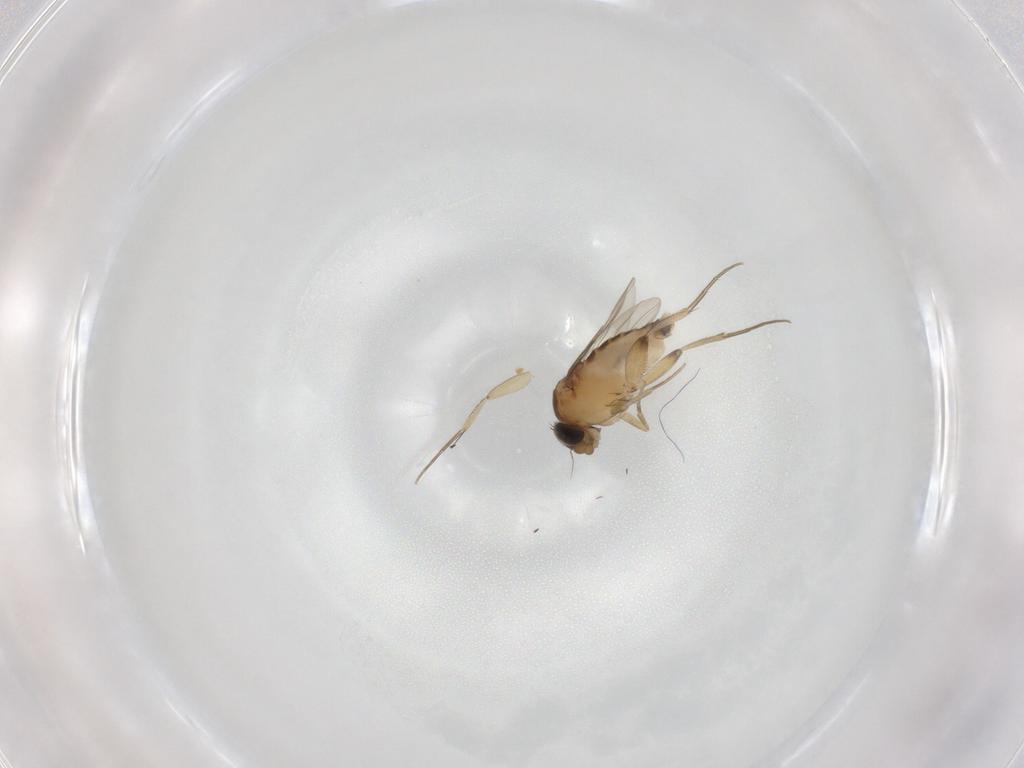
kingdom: Animalia
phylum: Arthropoda
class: Insecta
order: Diptera
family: Phoridae
